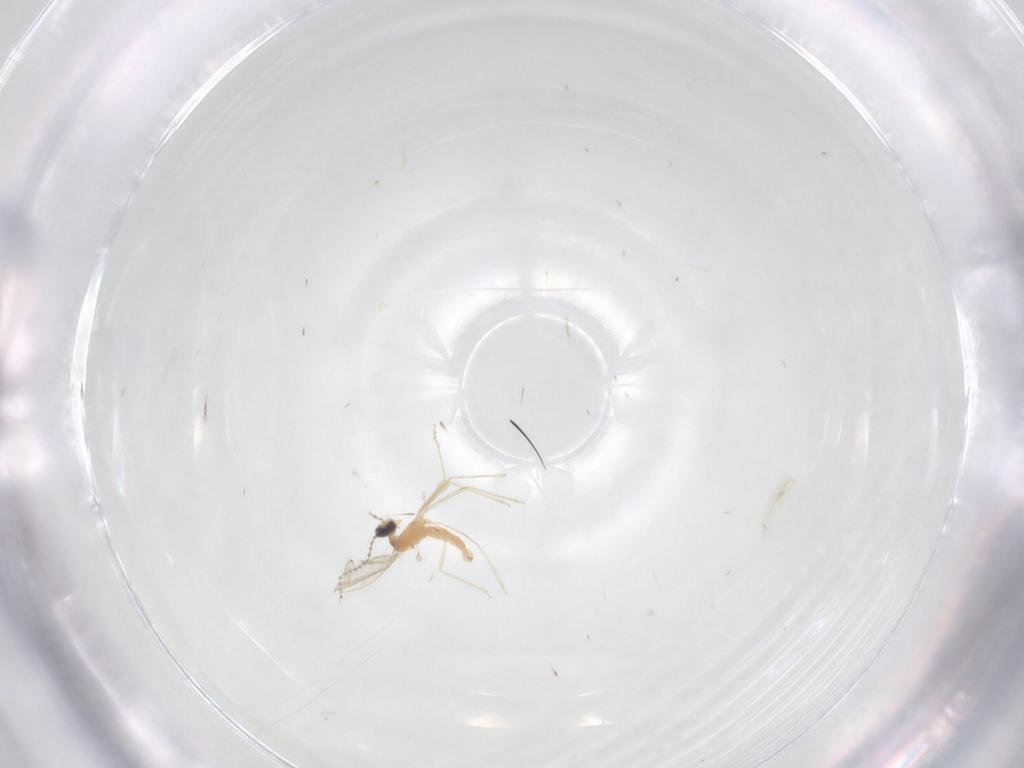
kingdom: Animalia
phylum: Arthropoda
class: Insecta
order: Diptera
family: Cecidomyiidae
